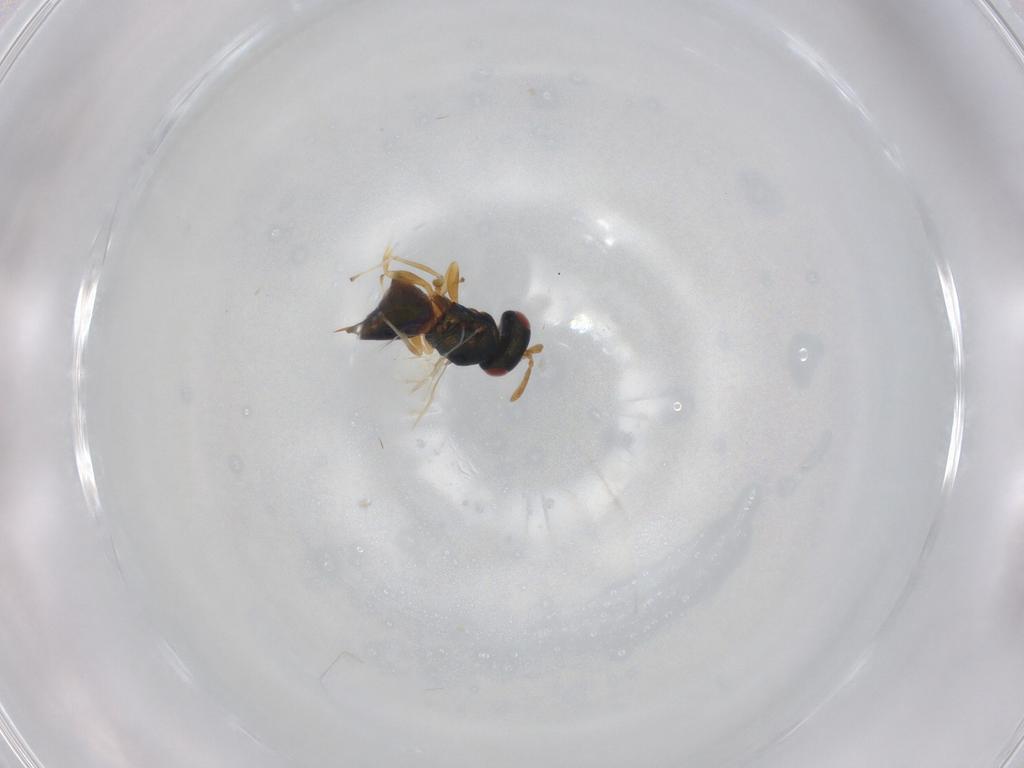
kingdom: Animalia
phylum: Arthropoda
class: Insecta
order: Hymenoptera
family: Pteromalidae
